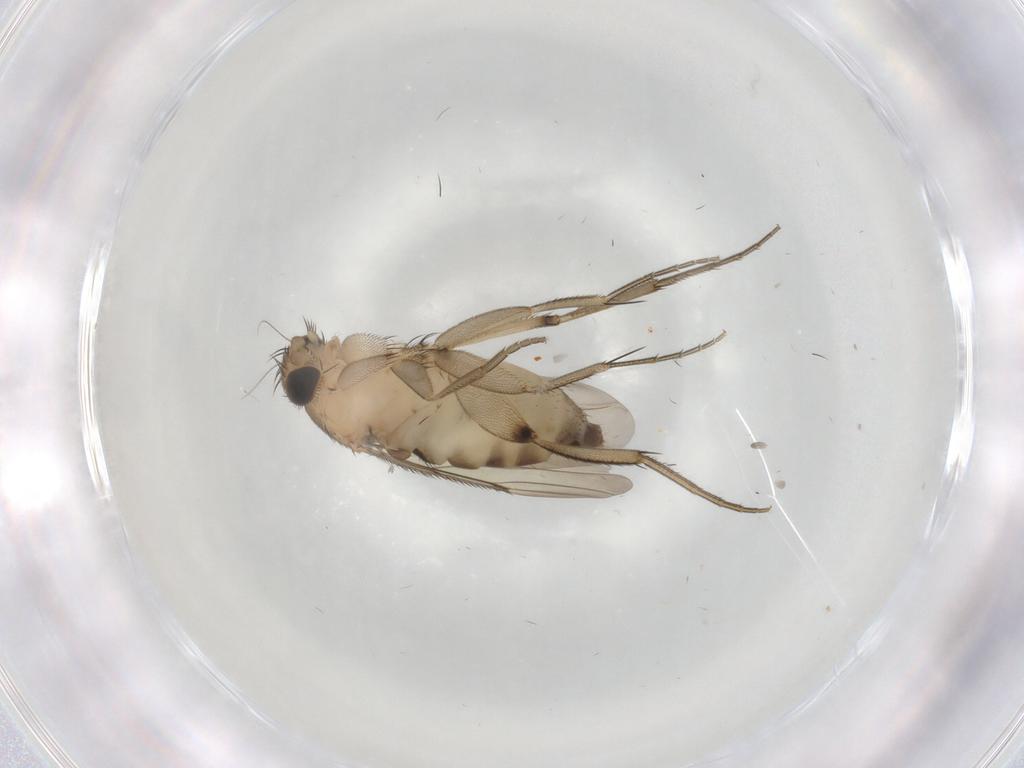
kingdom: Animalia
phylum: Arthropoda
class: Insecta
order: Diptera
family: Phoridae
